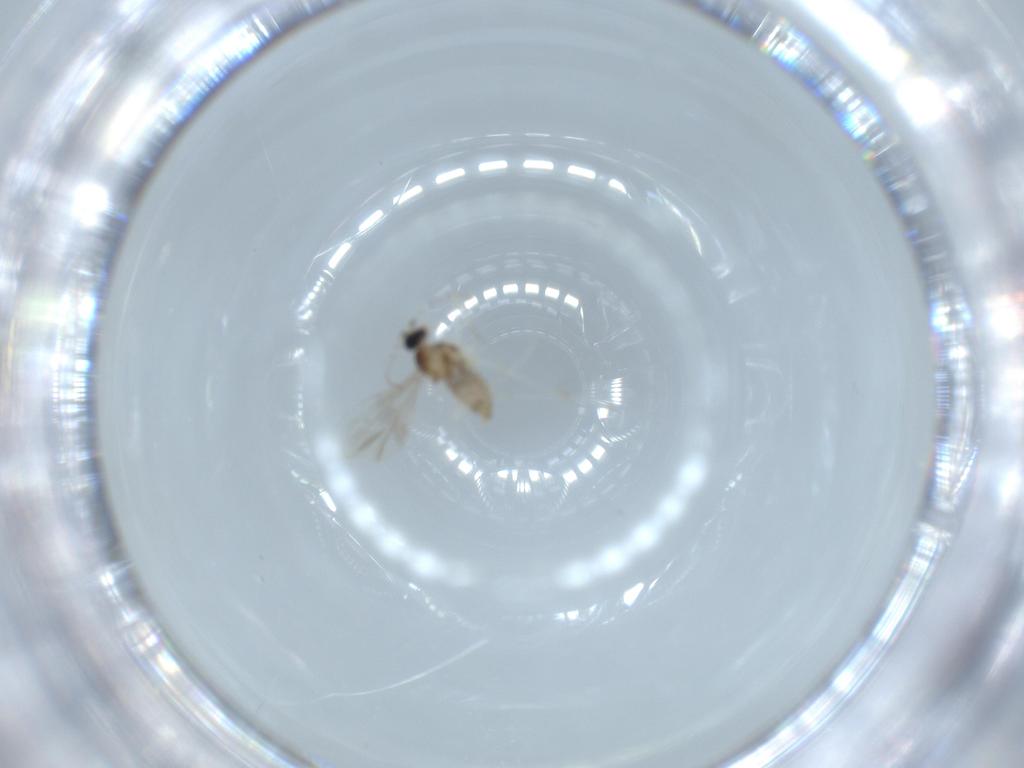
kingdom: Animalia
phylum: Arthropoda
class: Insecta
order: Diptera
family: Cecidomyiidae
